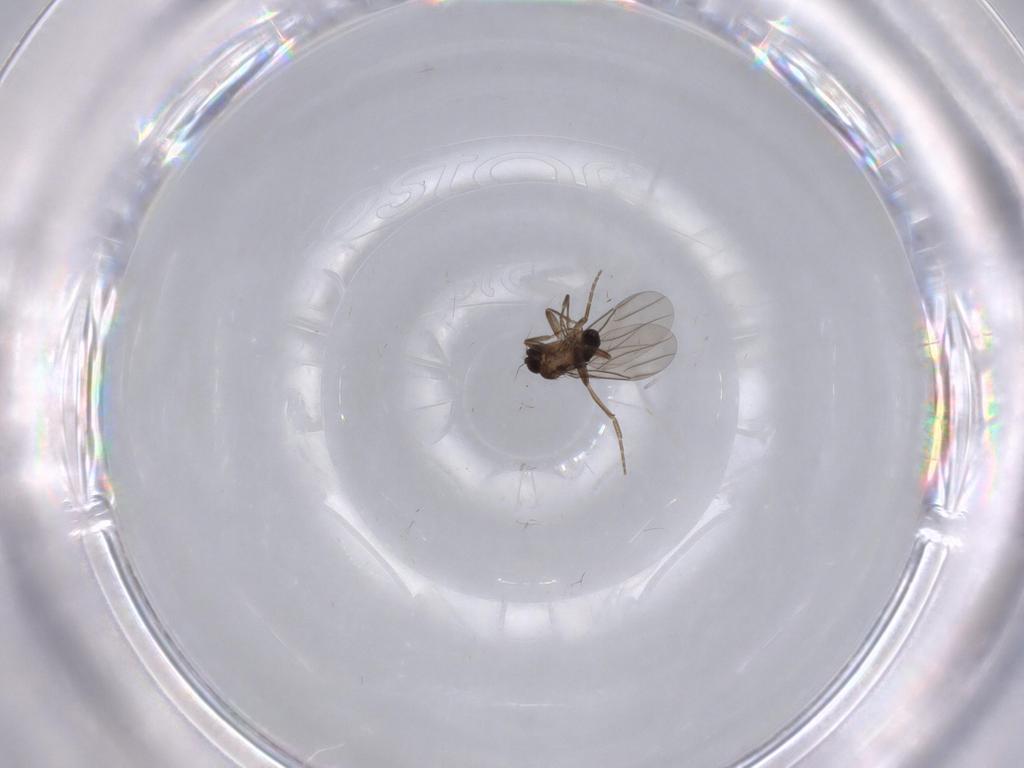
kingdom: Animalia
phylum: Arthropoda
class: Insecta
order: Diptera
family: Cecidomyiidae
